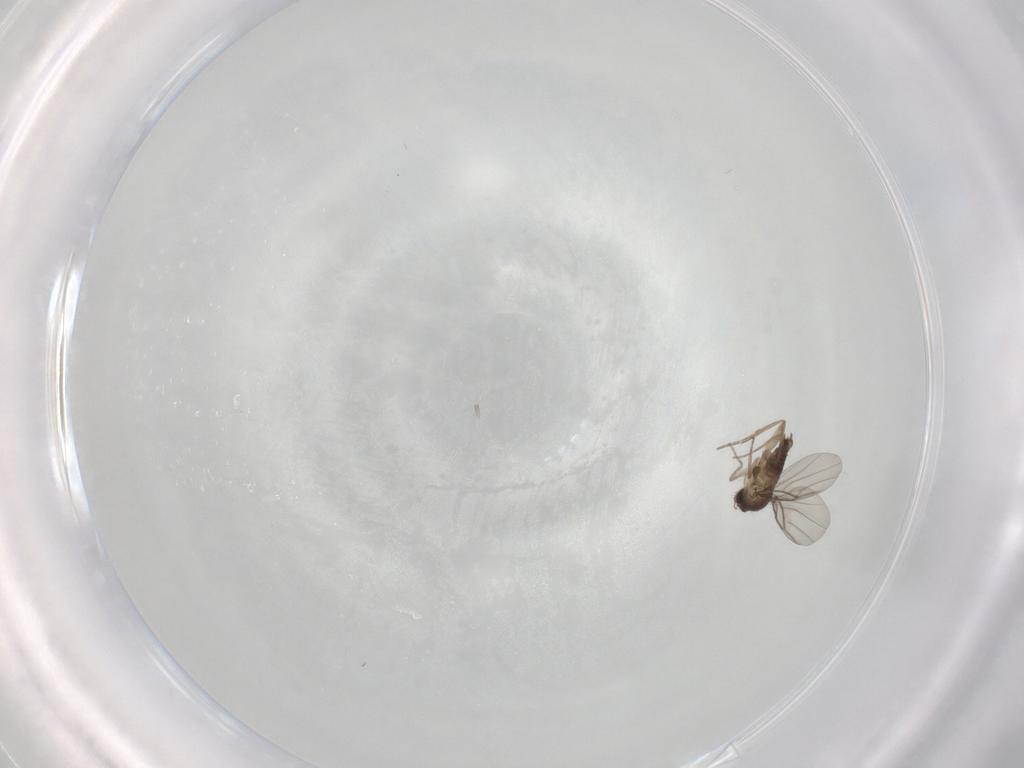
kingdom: Animalia
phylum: Arthropoda
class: Insecta
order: Diptera
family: Phoridae
